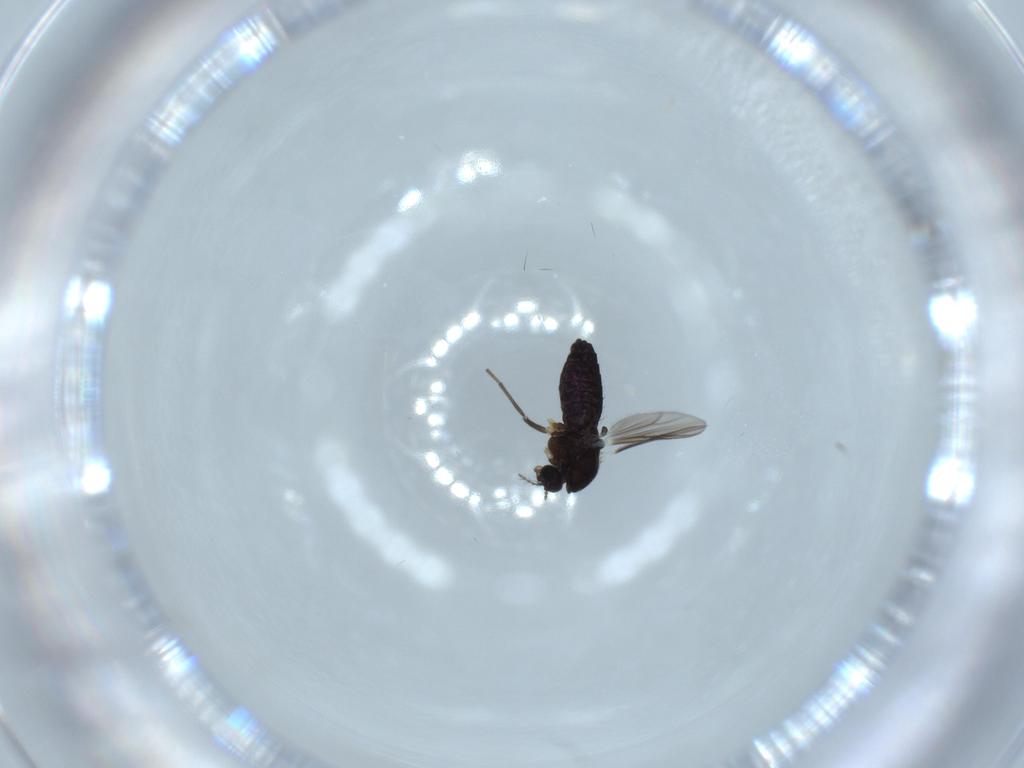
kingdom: Animalia
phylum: Arthropoda
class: Insecta
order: Diptera
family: Chironomidae
